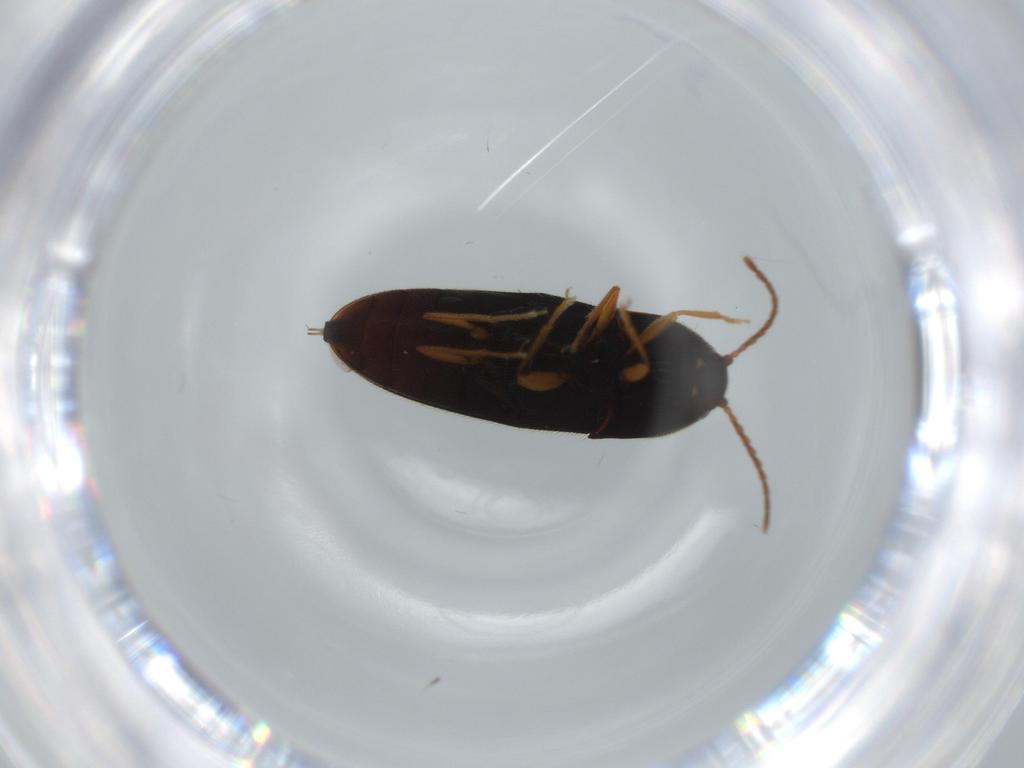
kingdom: Animalia
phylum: Arthropoda
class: Insecta
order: Coleoptera
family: Elateridae
